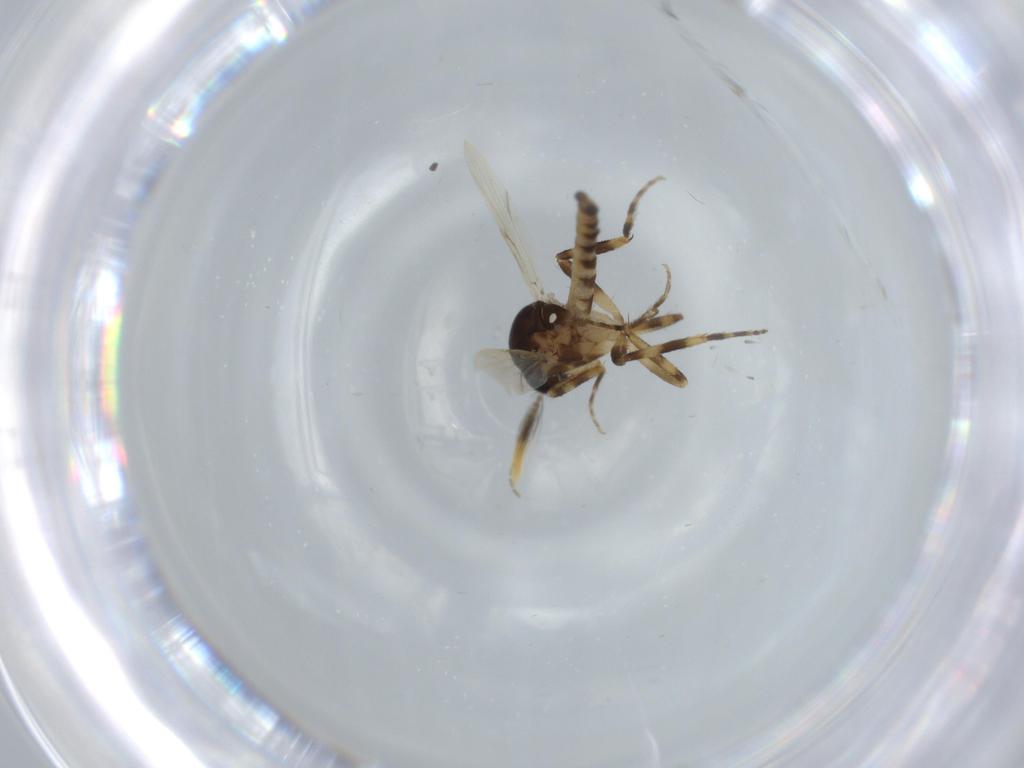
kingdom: Animalia
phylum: Arthropoda
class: Insecta
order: Diptera
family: Ceratopogonidae
